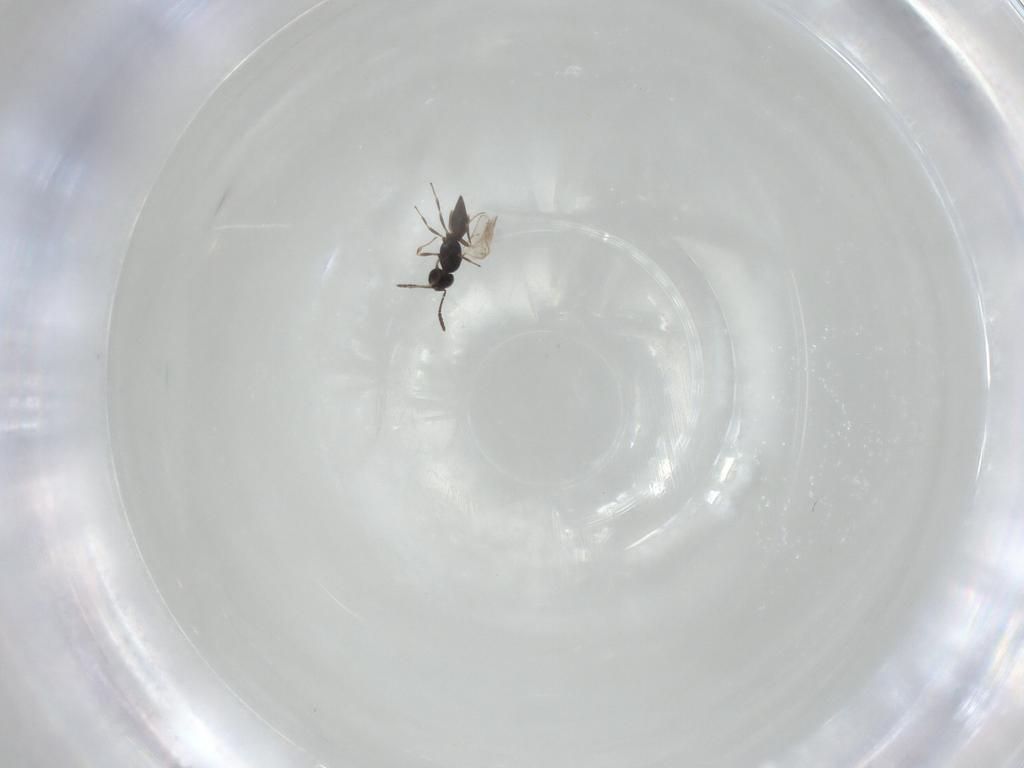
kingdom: Animalia
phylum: Arthropoda
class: Insecta
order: Hymenoptera
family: Scelionidae
